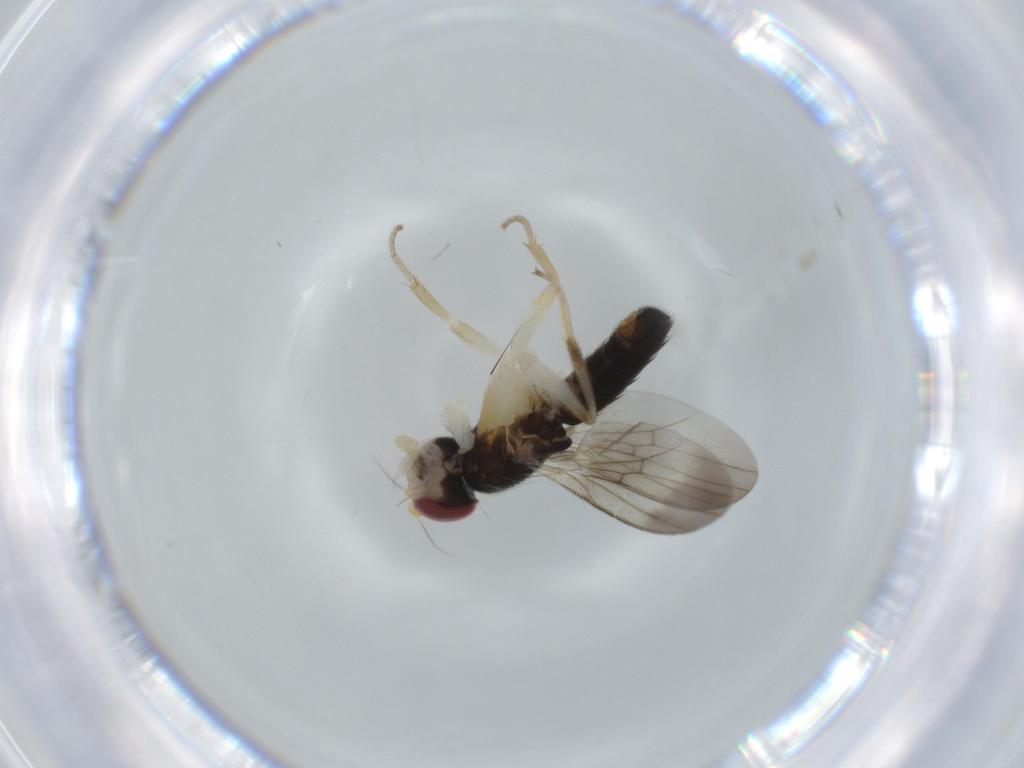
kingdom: Animalia
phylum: Arthropoda
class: Insecta
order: Diptera
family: Clusiidae
